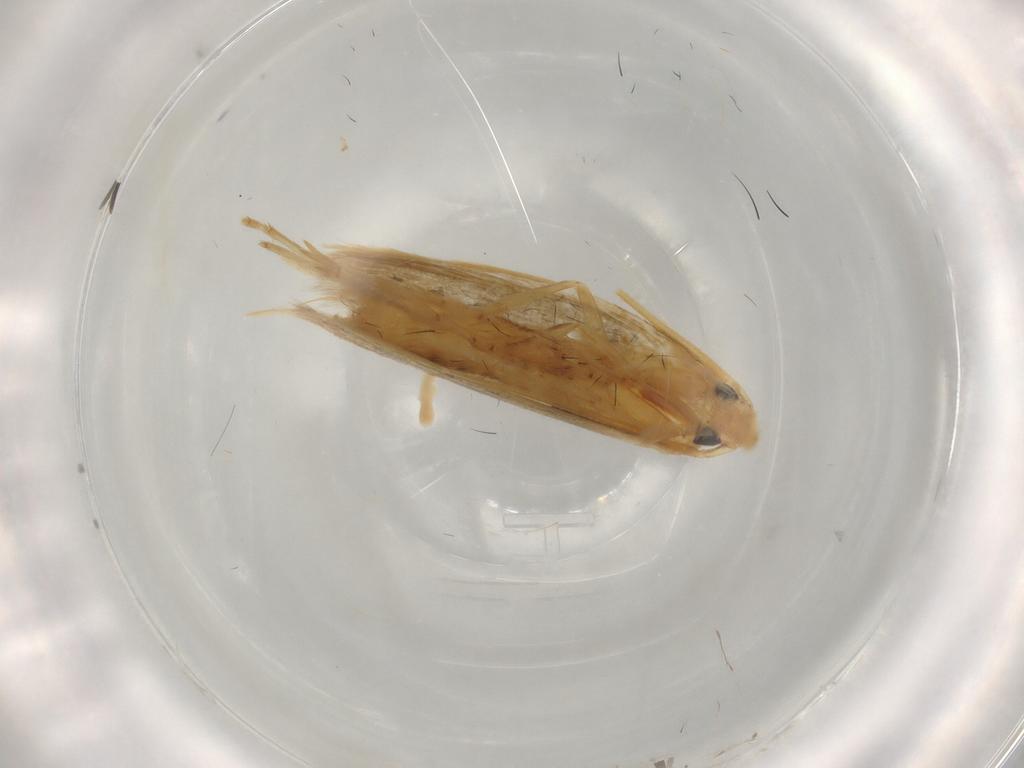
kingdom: Animalia
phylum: Arthropoda
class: Insecta
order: Lepidoptera
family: Tineidae
